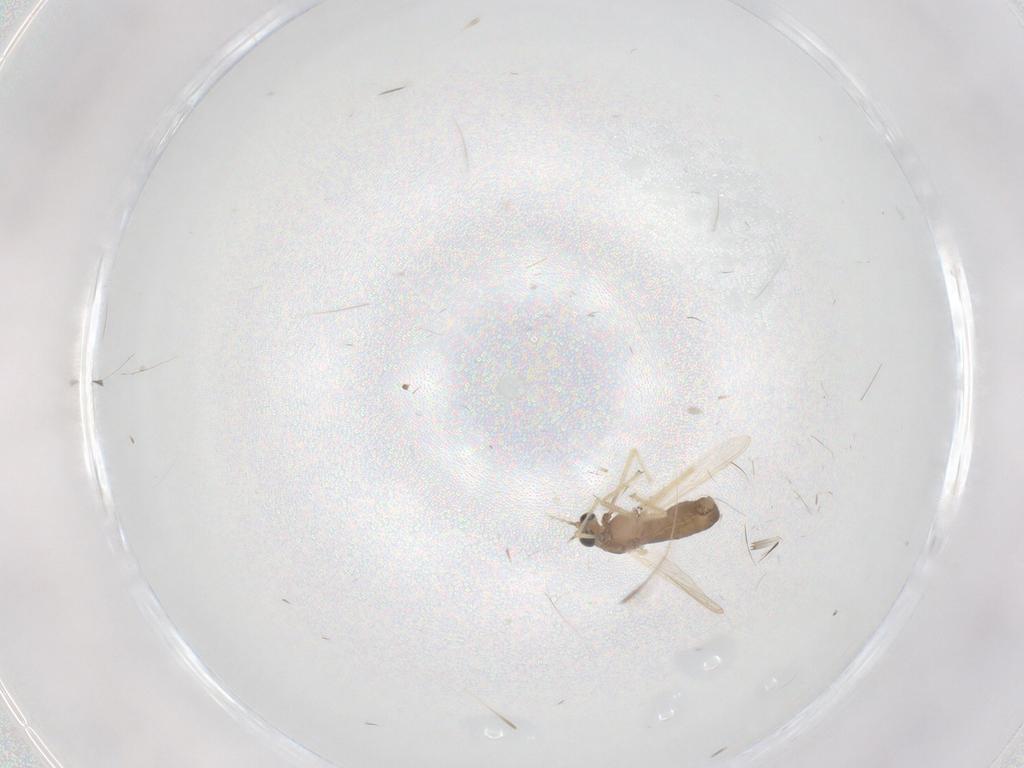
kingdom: Animalia
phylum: Arthropoda
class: Insecta
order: Diptera
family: Chironomidae
